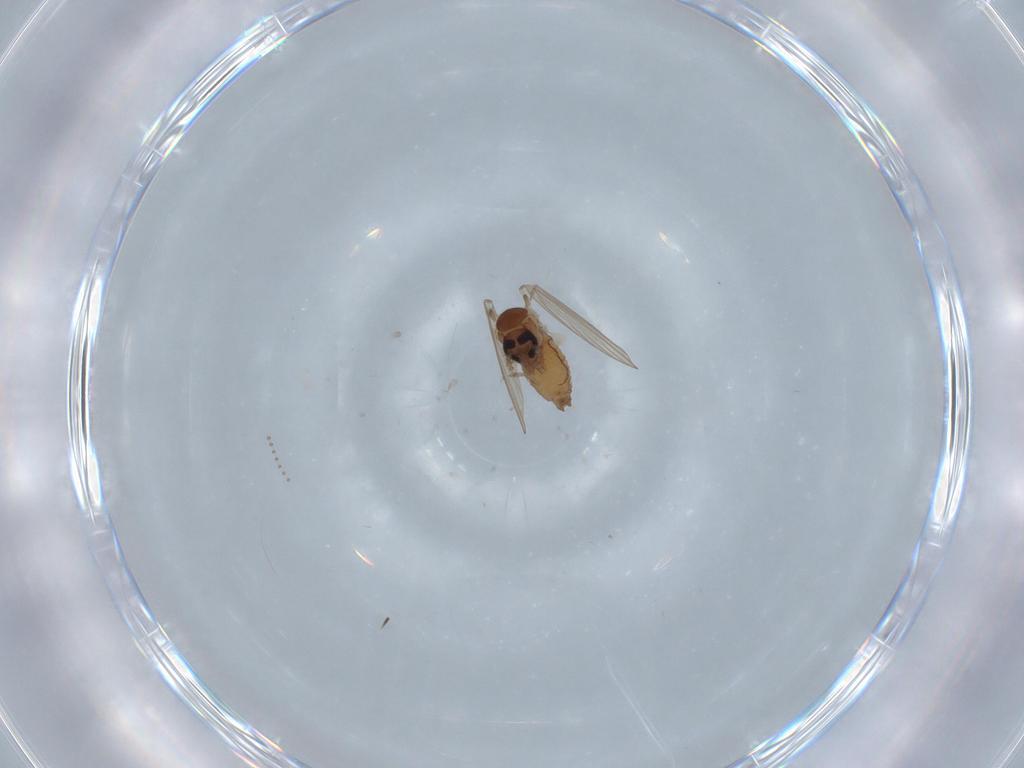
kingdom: Animalia
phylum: Arthropoda
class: Insecta
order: Diptera
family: Psychodidae
